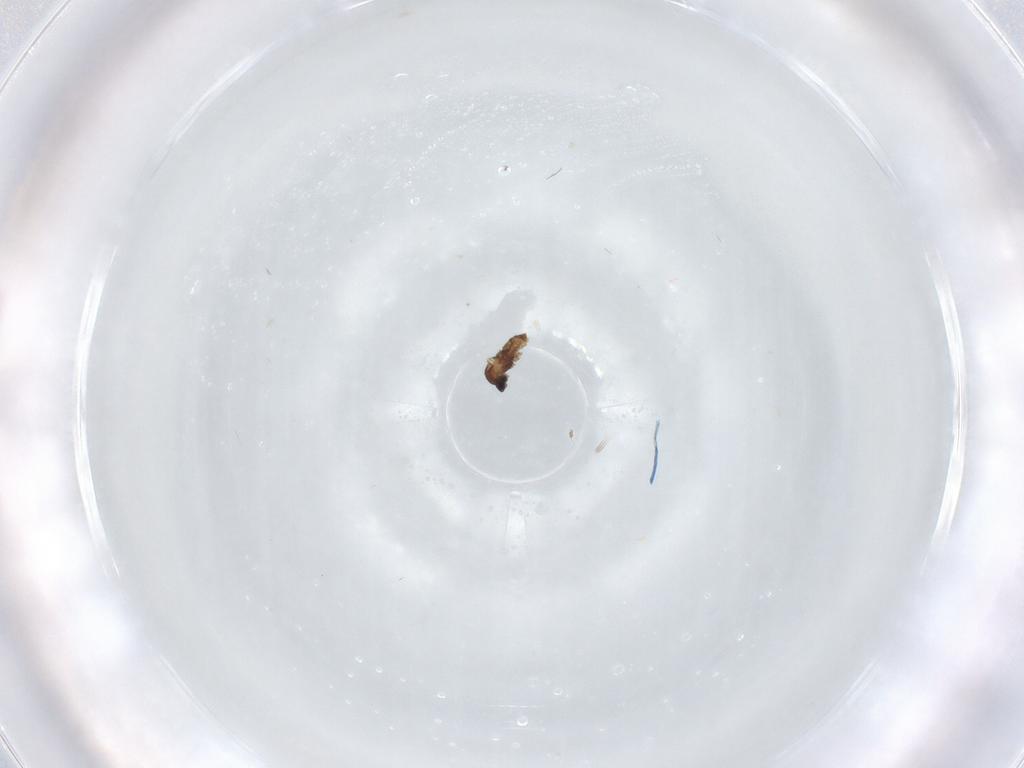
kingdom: Animalia
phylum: Arthropoda
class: Insecta
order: Diptera
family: Cecidomyiidae
